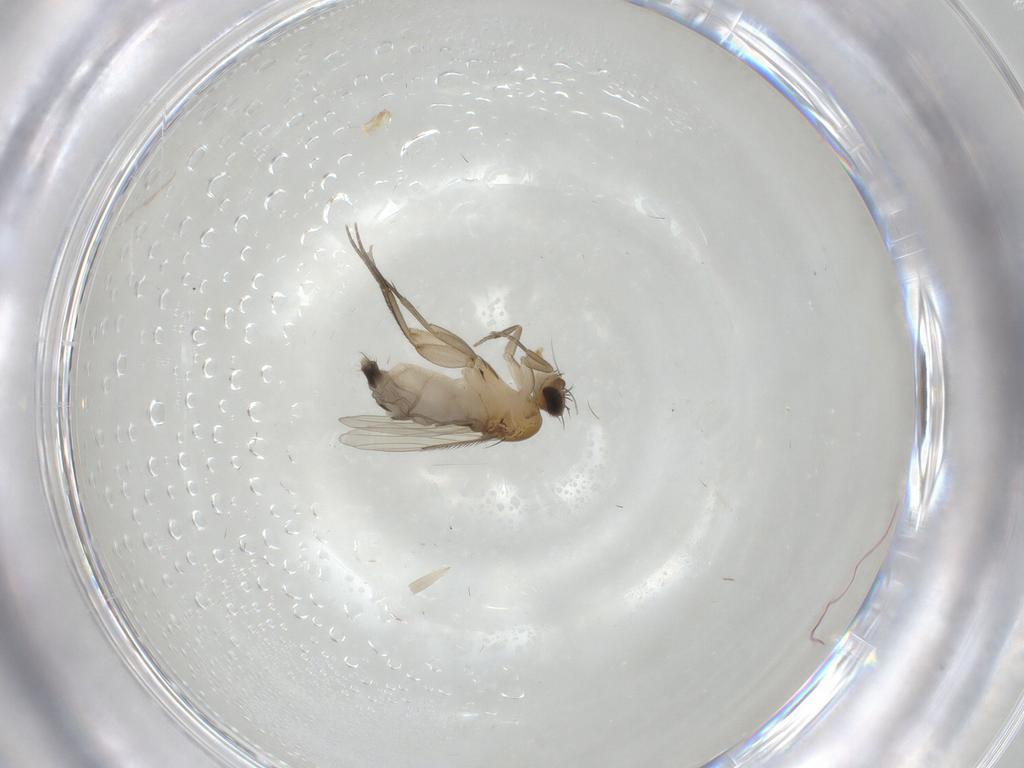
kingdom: Animalia
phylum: Arthropoda
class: Insecta
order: Diptera
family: Phoridae
